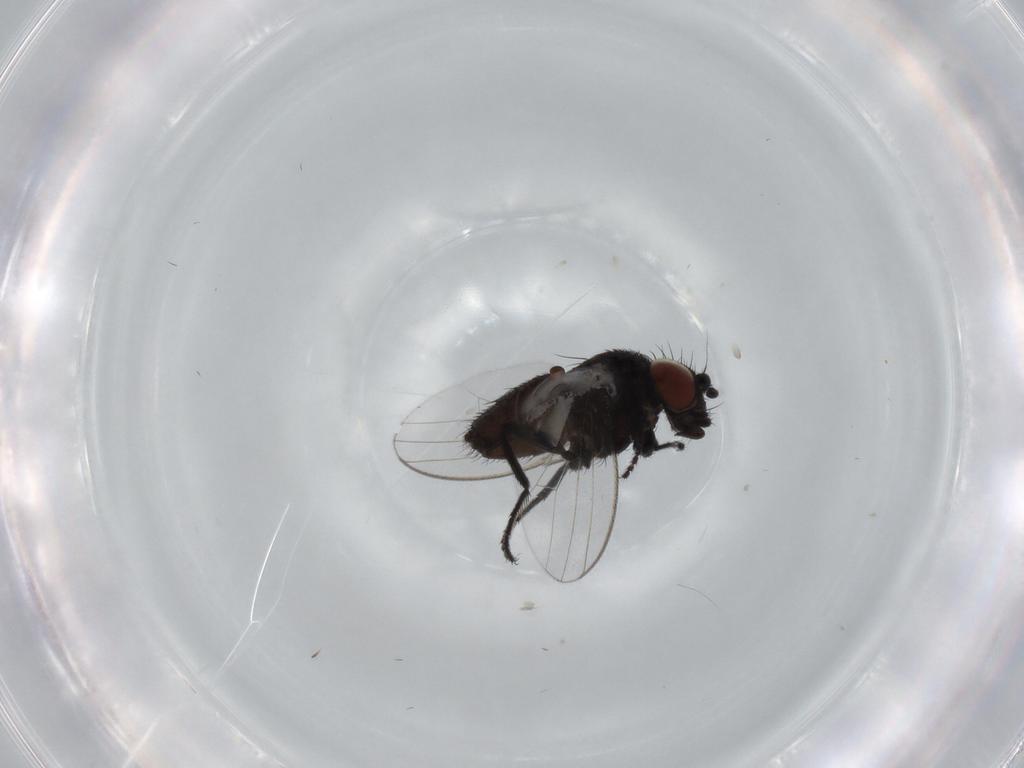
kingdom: Animalia
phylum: Arthropoda
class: Insecta
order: Diptera
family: Milichiidae
